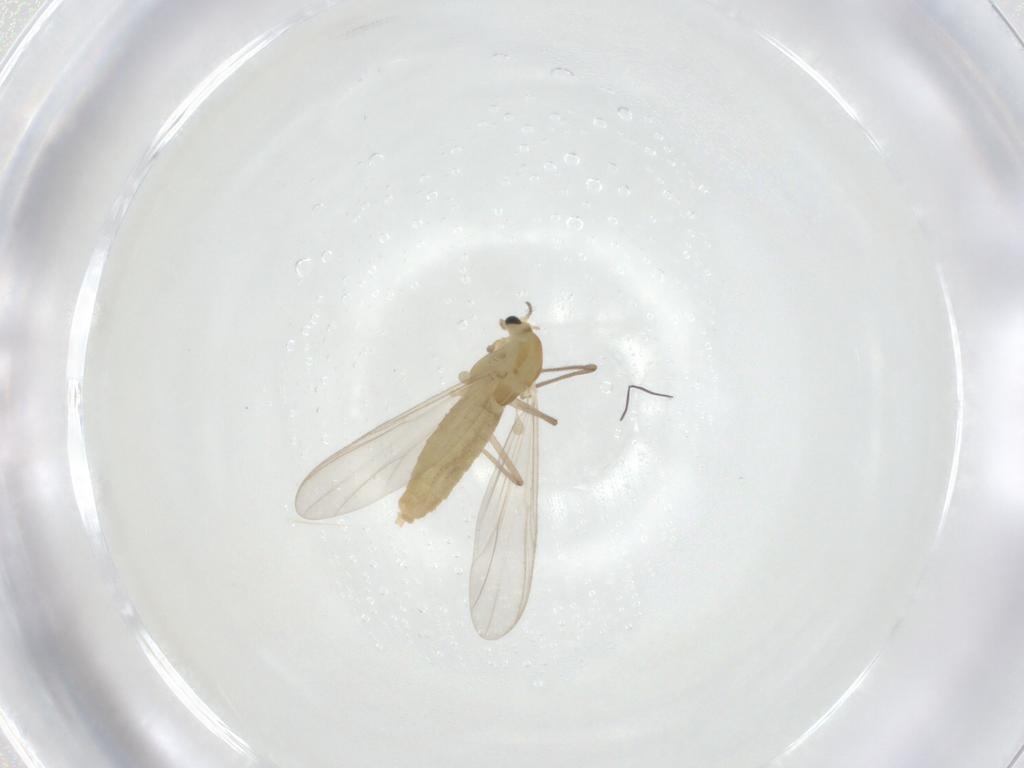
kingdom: Animalia
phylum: Arthropoda
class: Insecta
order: Diptera
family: Chironomidae
